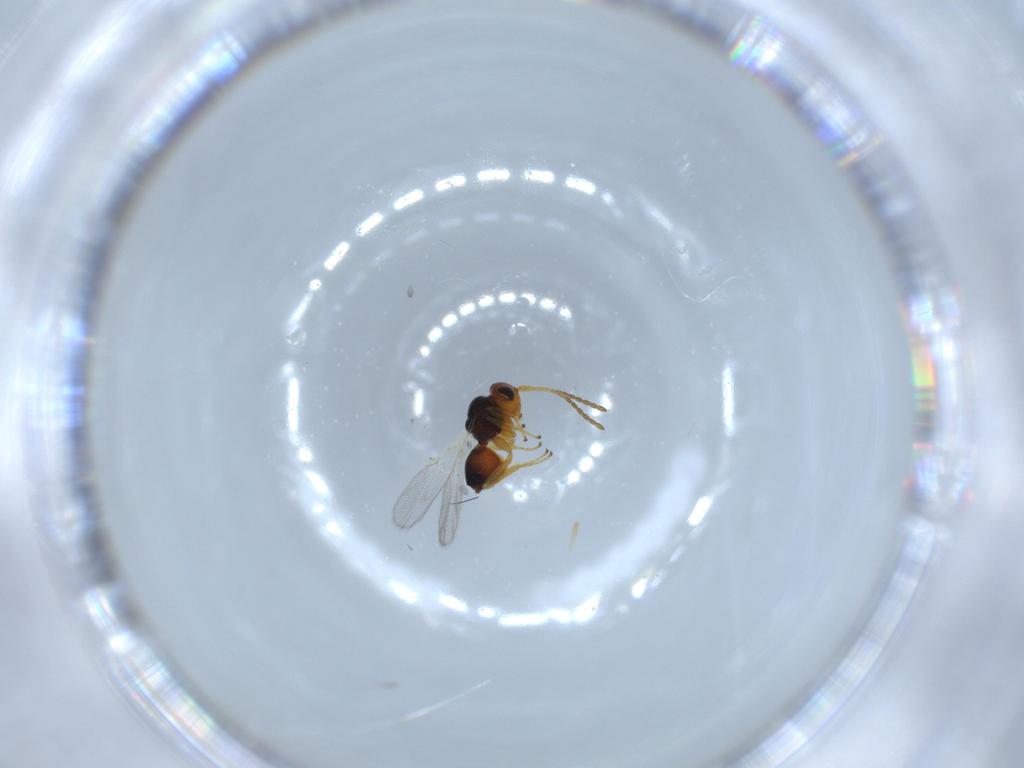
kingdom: Animalia
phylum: Arthropoda
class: Insecta
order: Hymenoptera
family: Figitidae
